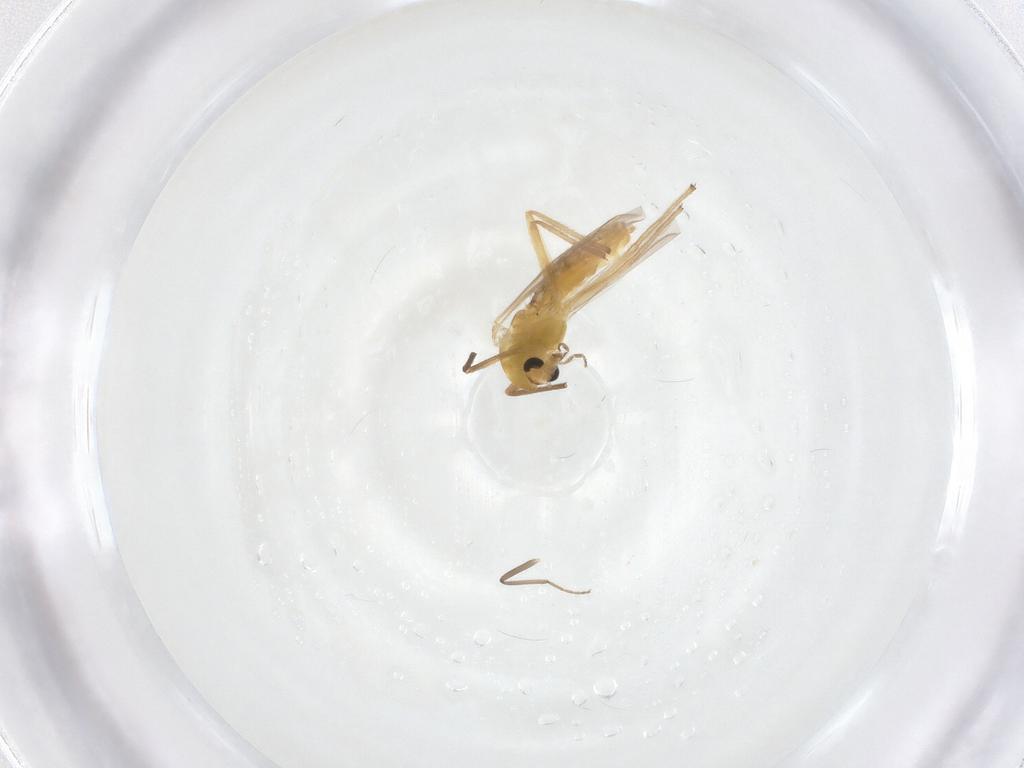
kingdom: Animalia
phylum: Arthropoda
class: Insecta
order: Diptera
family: Chironomidae
